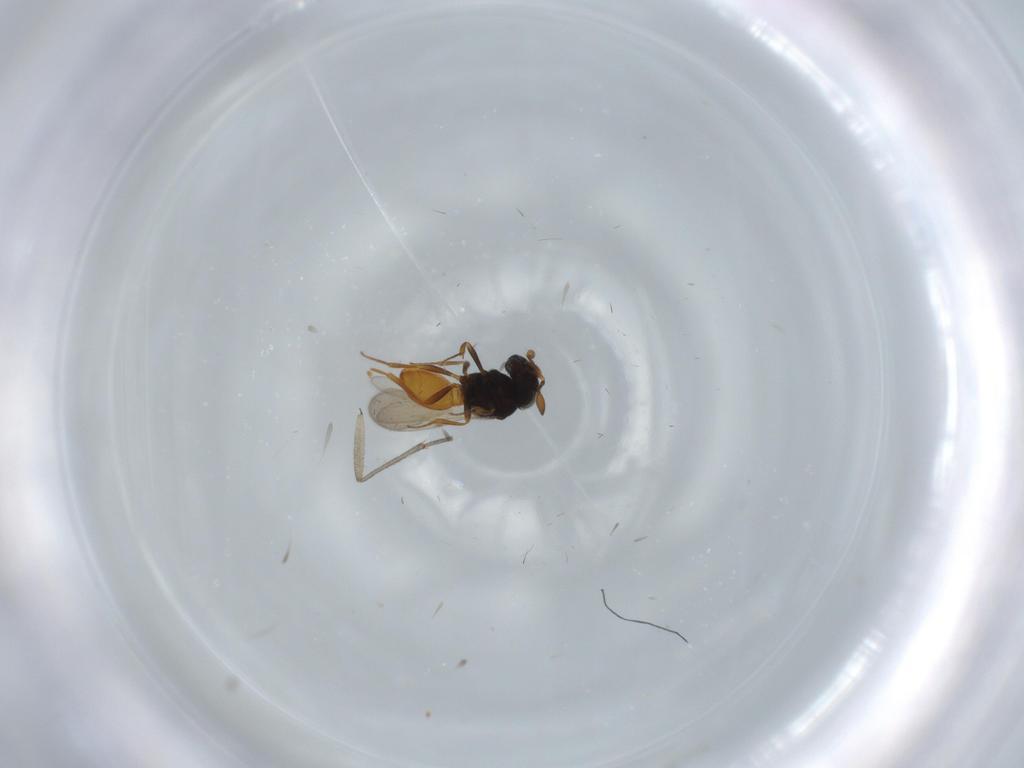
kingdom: Animalia
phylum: Arthropoda
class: Insecta
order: Hymenoptera
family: Scelionidae
